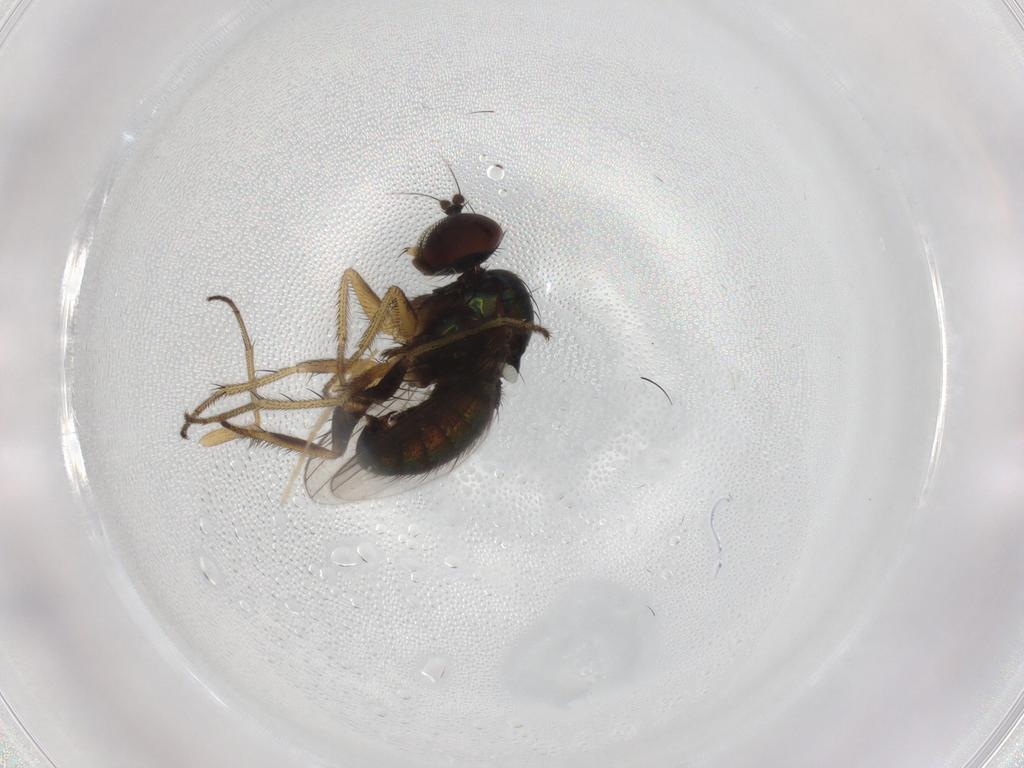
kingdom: Animalia
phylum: Arthropoda
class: Insecta
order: Diptera
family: Dolichopodidae
